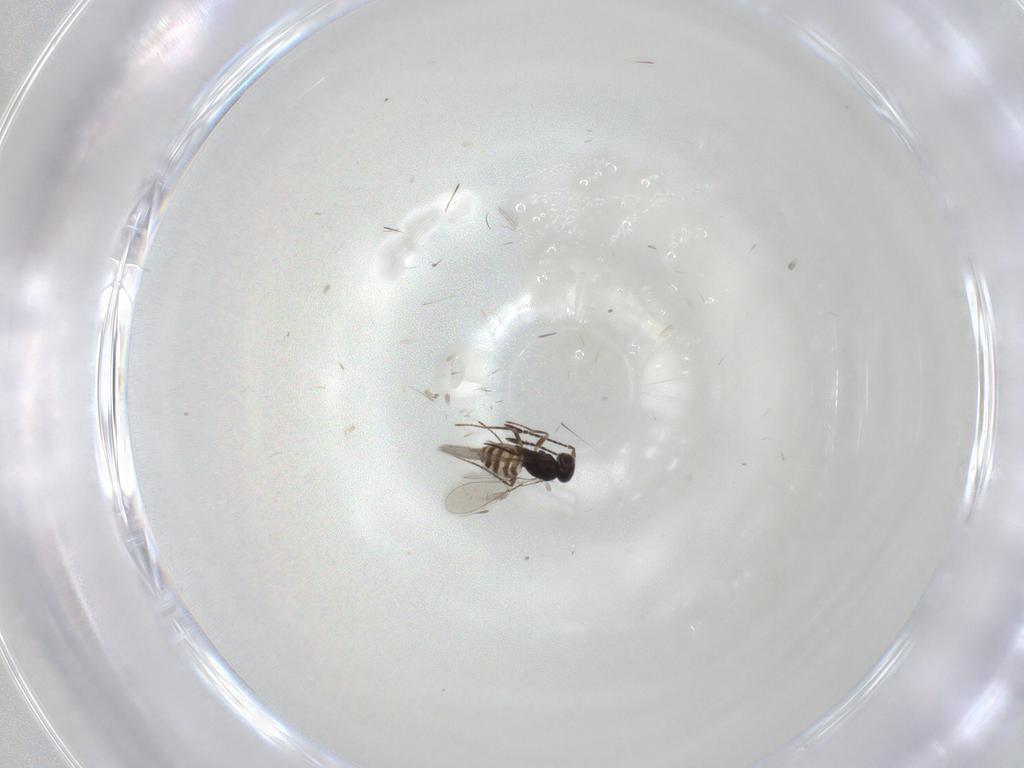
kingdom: Animalia
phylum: Arthropoda
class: Insecta
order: Hymenoptera
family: Mymaridae
